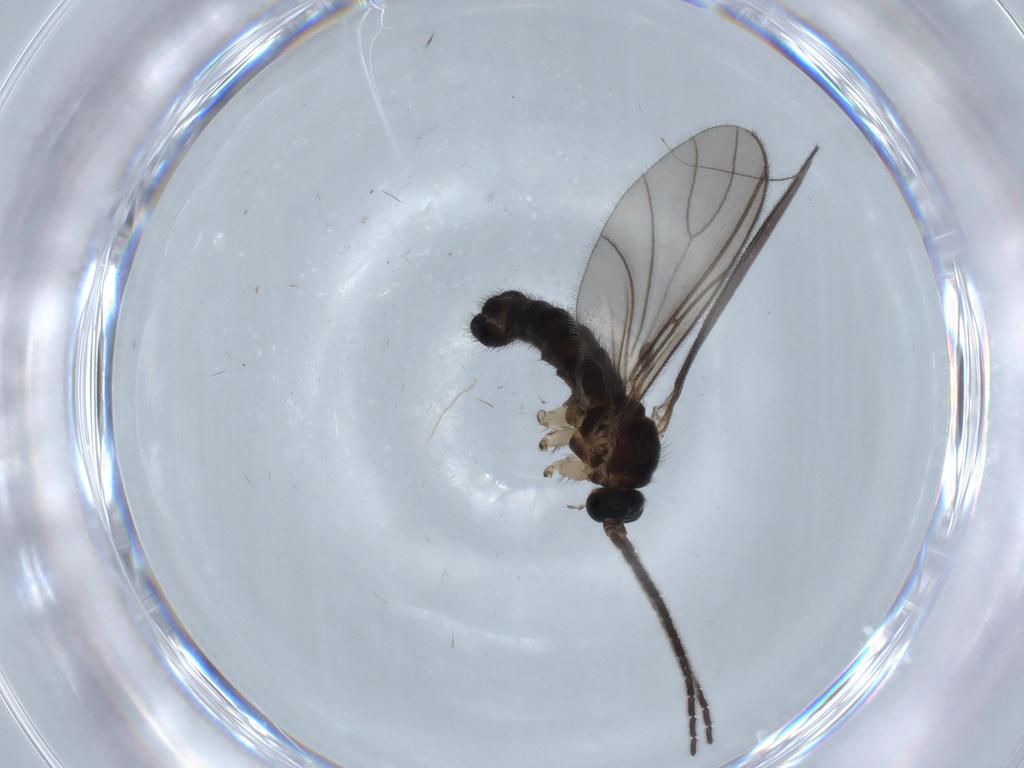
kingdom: Animalia
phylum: Arthropoda
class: Insecta
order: Diptera
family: Sciaridae
